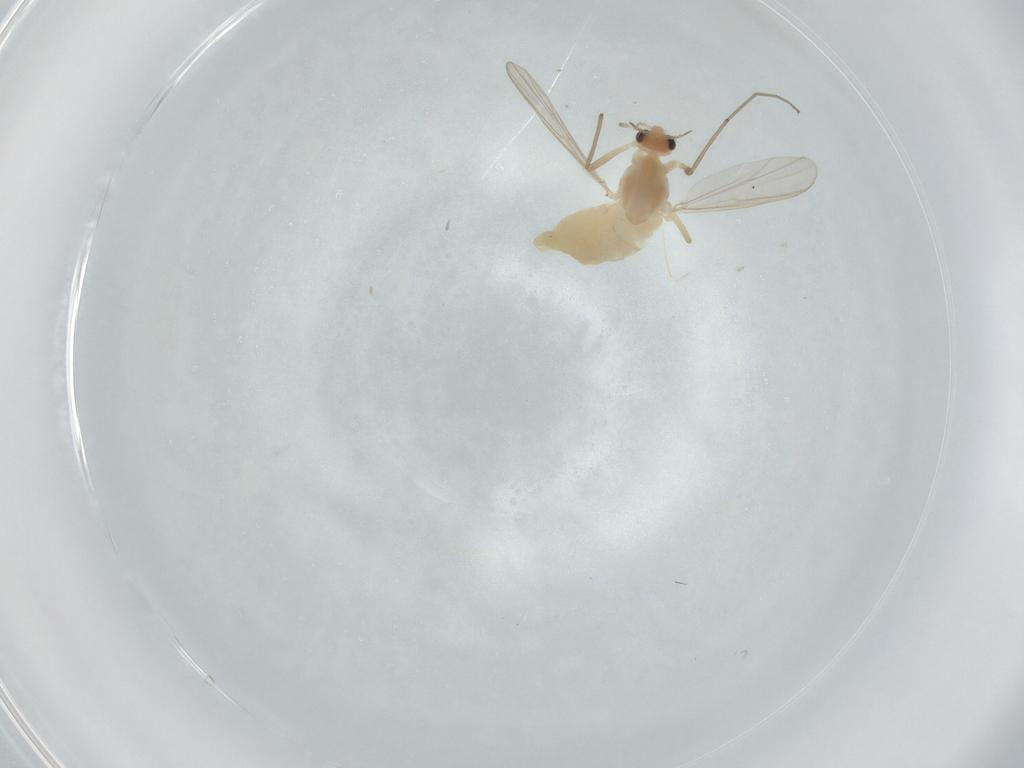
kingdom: Animalia
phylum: Arthropoda
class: Insecta
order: Diptera
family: Chironomidae
